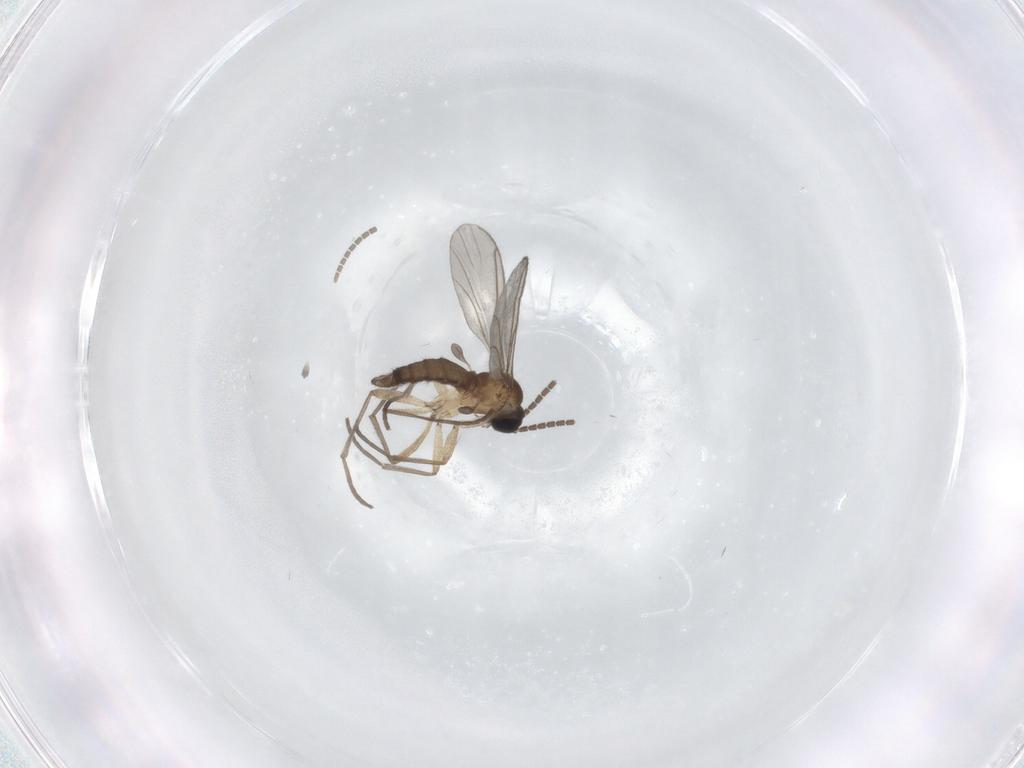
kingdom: Animalia
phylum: Arthropoda
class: Insecta
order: Diptera
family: Sciaridae
